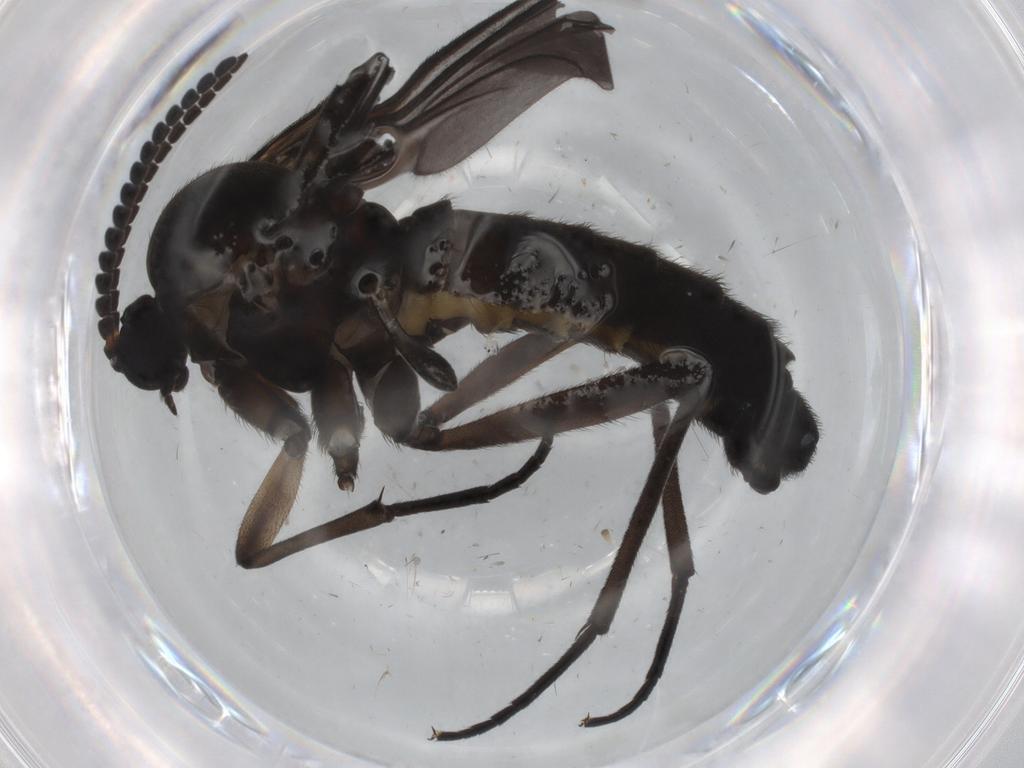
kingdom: Animalia
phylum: Arthropoda
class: Insecta
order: Diptera
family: Sciaridae
